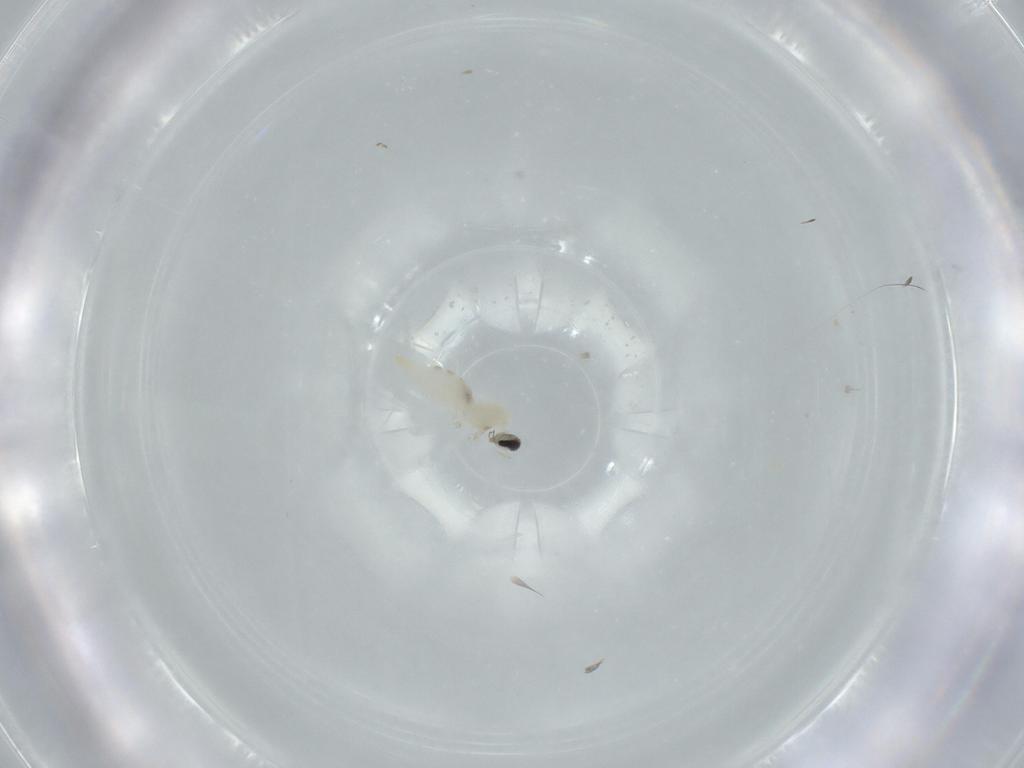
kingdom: Animalia
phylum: Arthropoda
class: Insecta
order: Diptera
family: Cecidomyiidae
